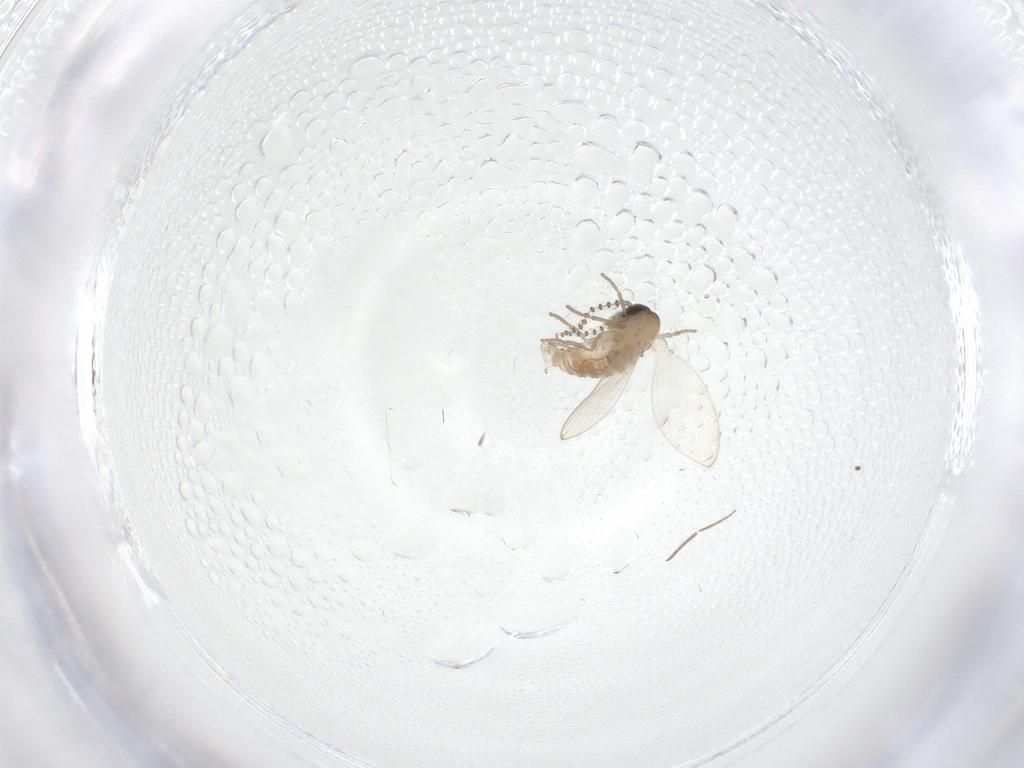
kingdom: Animalia
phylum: Arthropoda
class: Insecta
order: Diptera
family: Psychodidae
